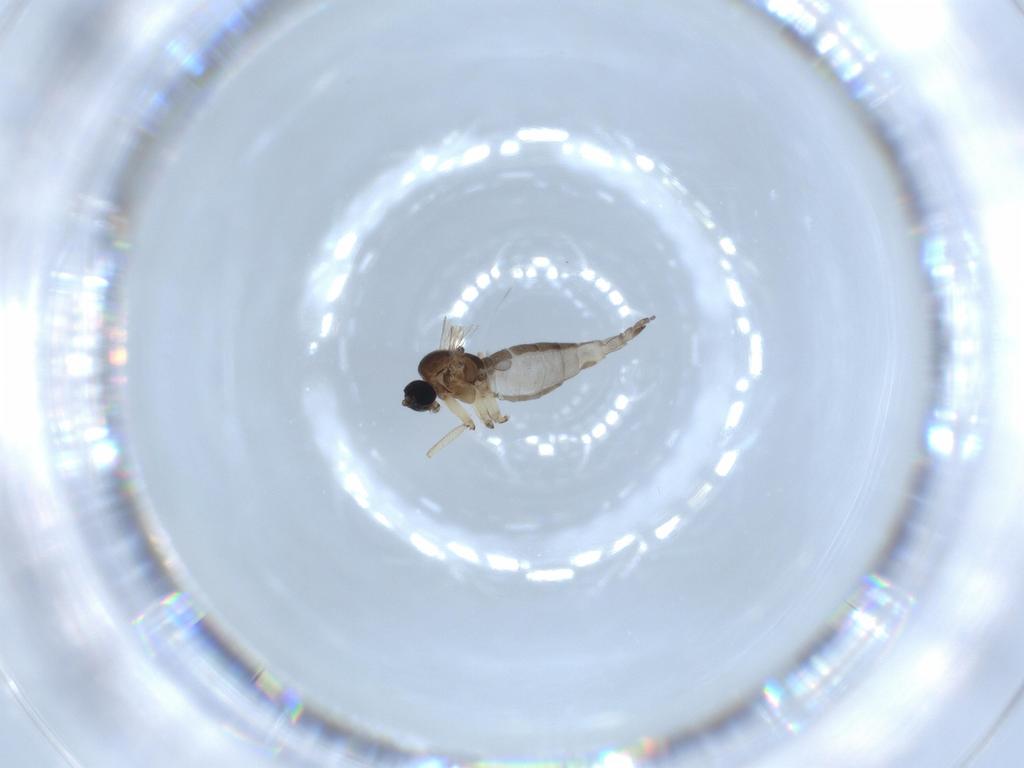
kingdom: Animalia
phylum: Arthropoda
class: Insecta
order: Diptera
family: Sciaridae
